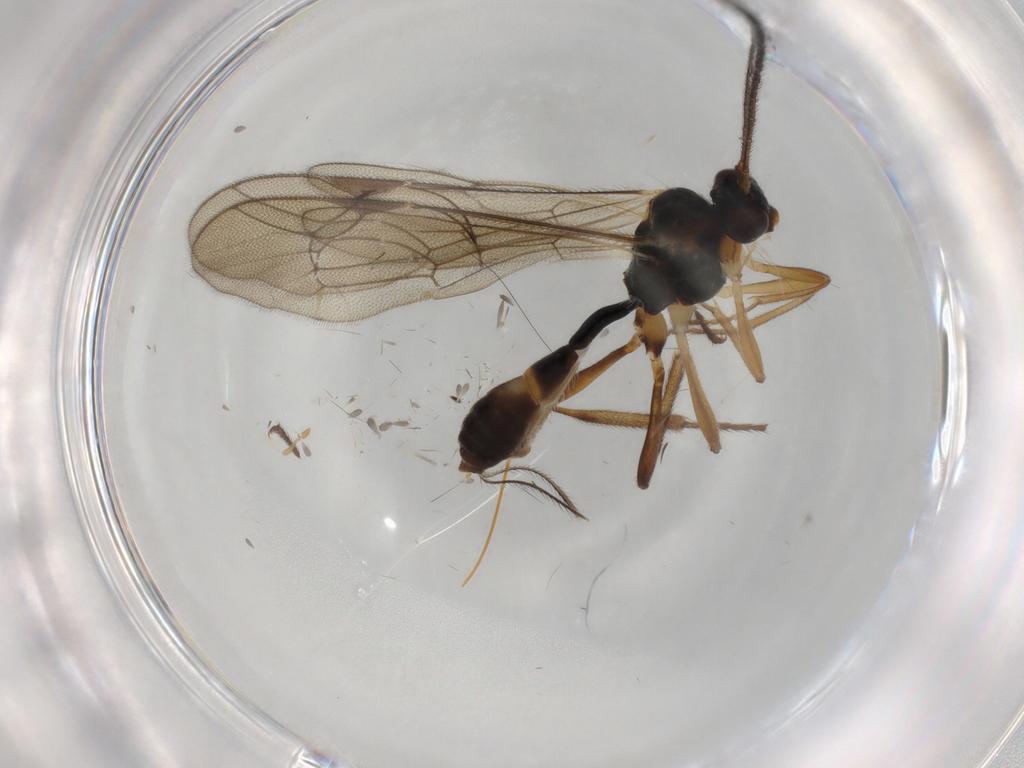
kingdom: Animalia
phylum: Arthropoda
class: Insecta
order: Hymenoptera
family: Ichneumonidae
